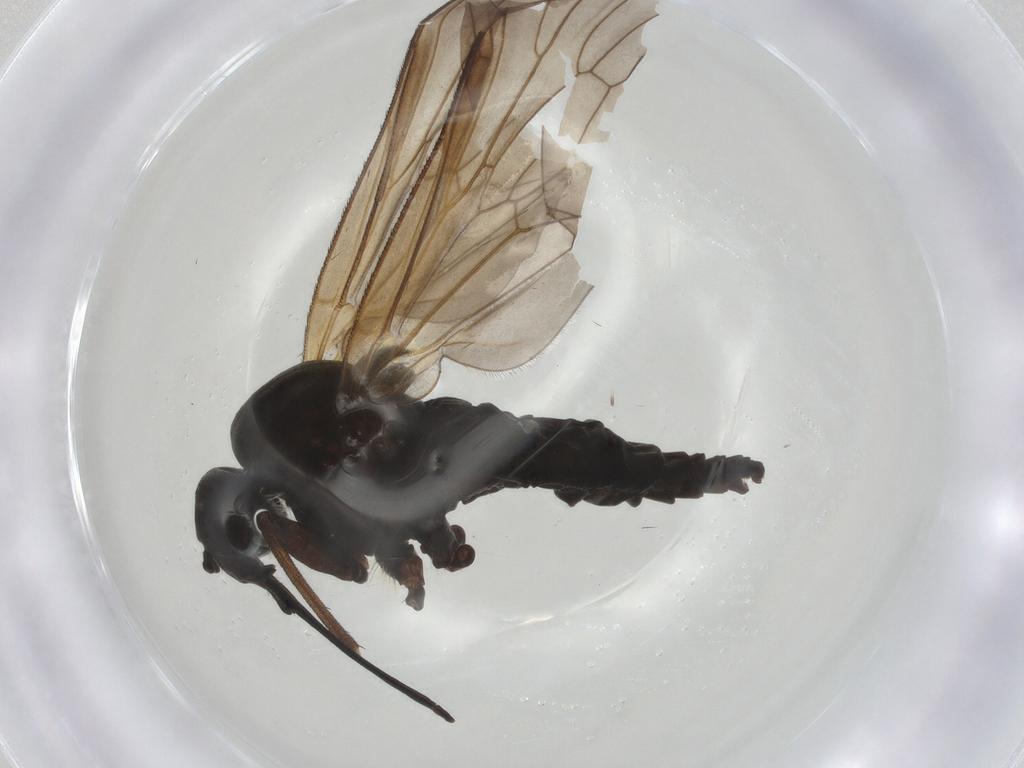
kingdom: Animalia
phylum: Arthropoda
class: Insecta
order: Diptera
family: Rhagionidae
